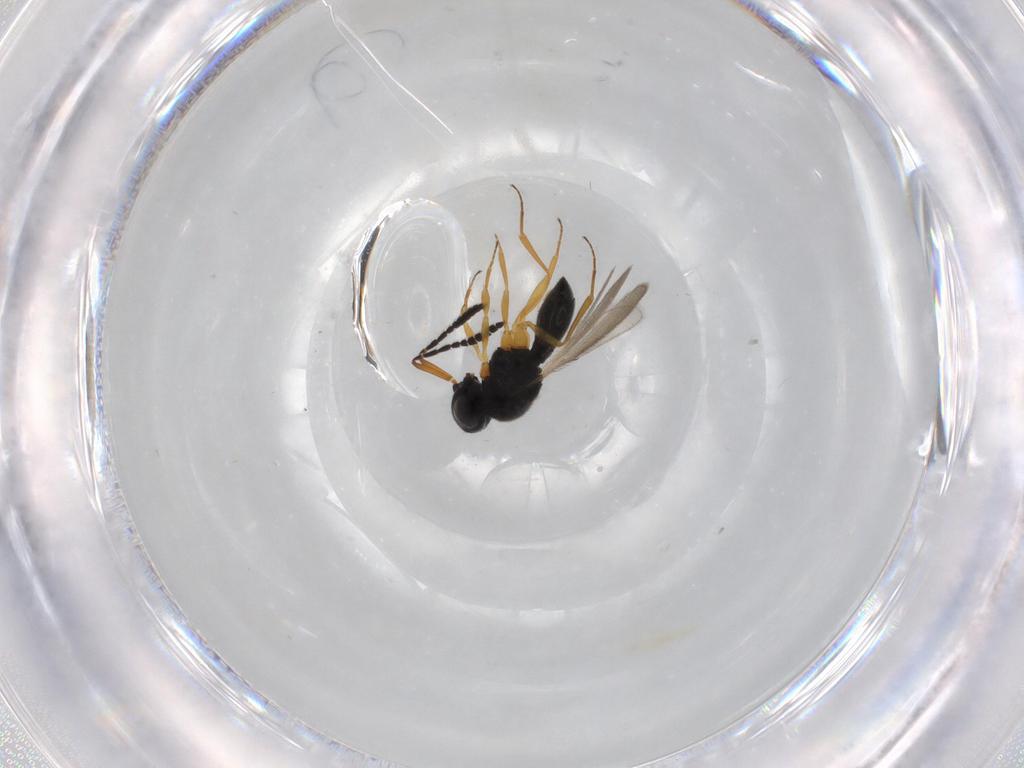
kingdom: Animalia
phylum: Arthropoda
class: Insecta
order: Hymenoptera
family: Scelionidae
